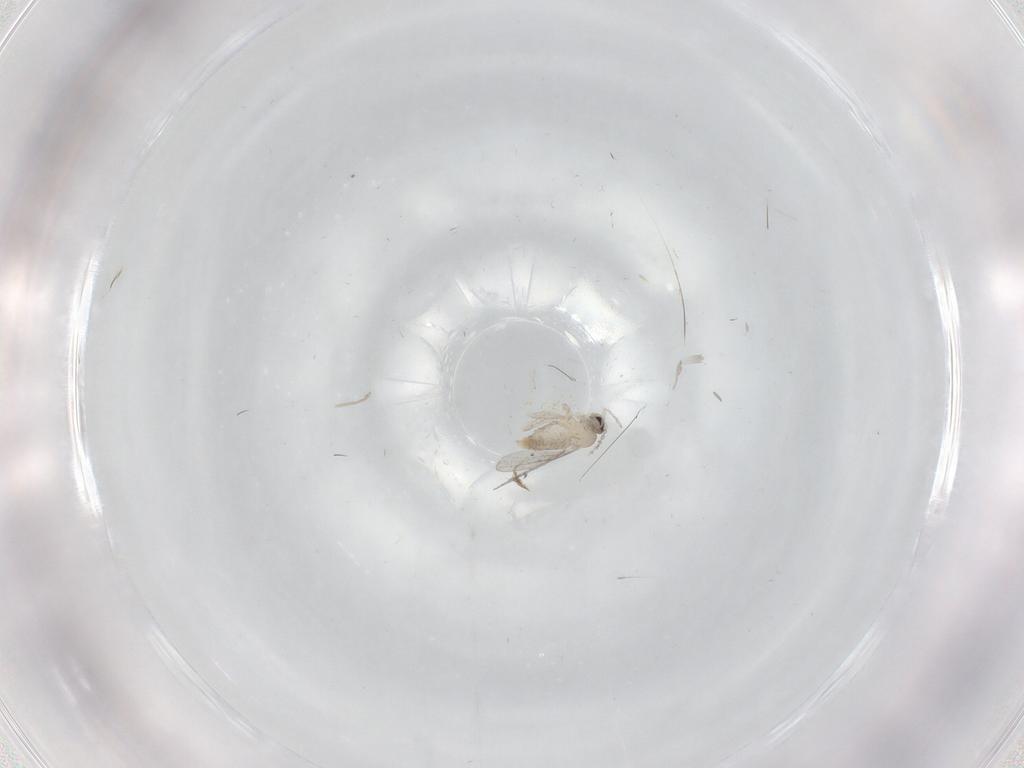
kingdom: Animalia
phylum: Arthropoda
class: Insecta
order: Diptera
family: Cecidomyiidae
